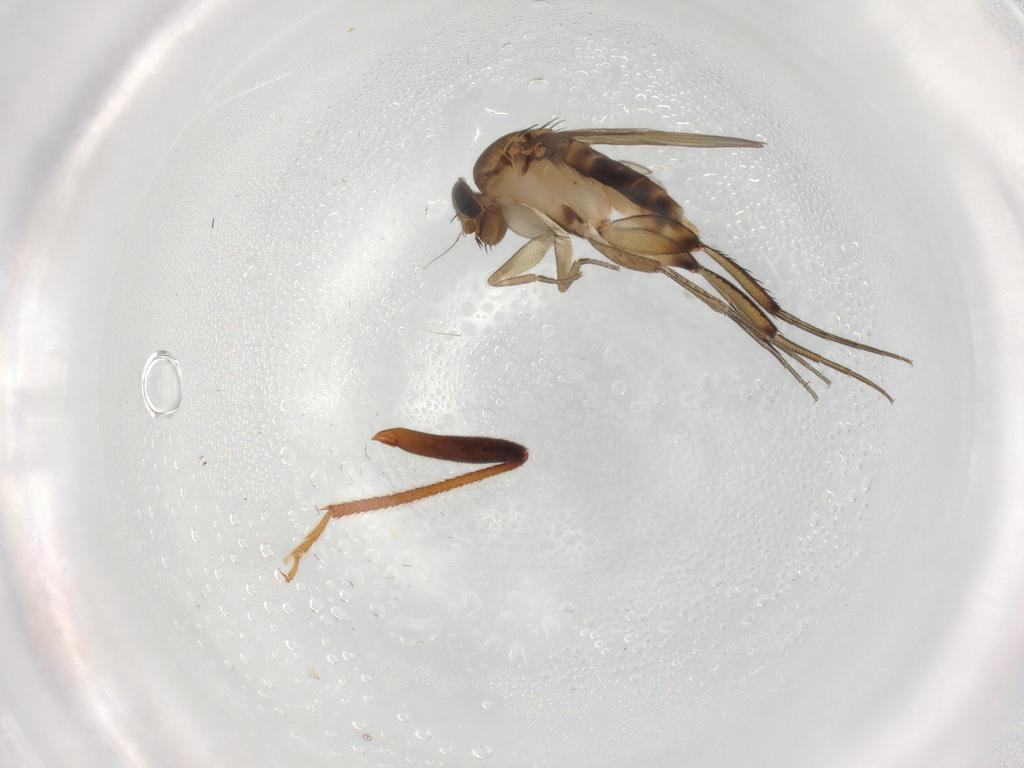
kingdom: Animalia
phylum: Arthropoda
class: Insecta
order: Diptera
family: Phoridae
